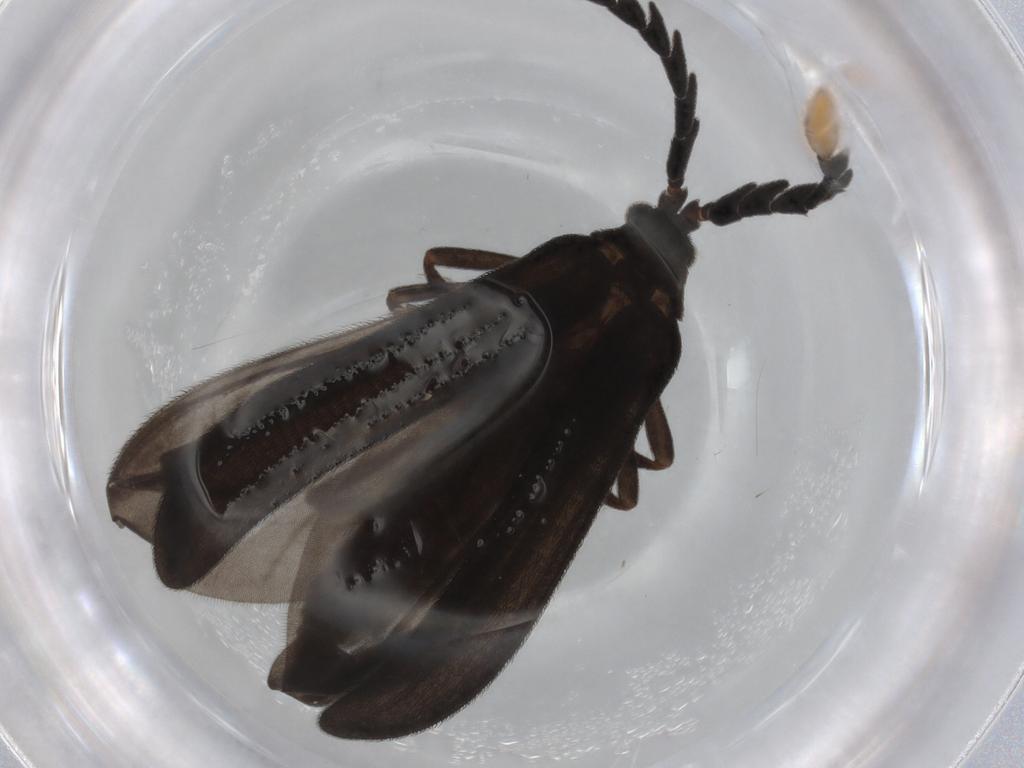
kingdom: Animalia
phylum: Arthropoda
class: Insecta
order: Coleoptera
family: Lycidae
